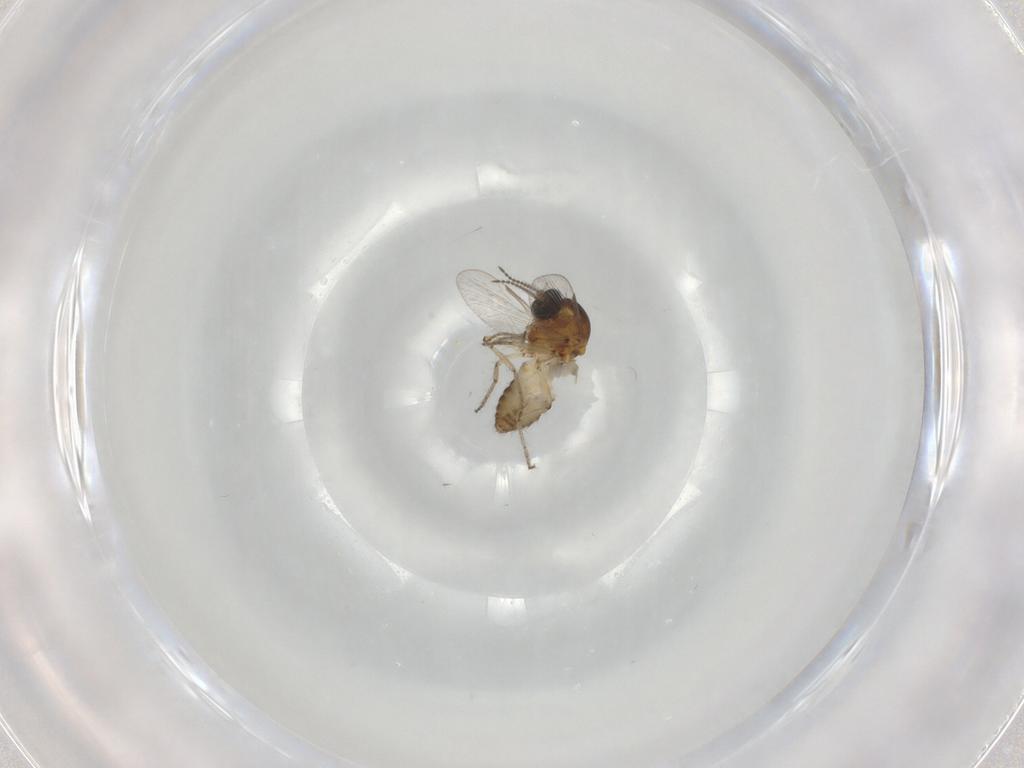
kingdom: Animalia
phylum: Arthropoda
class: Insecta
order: Diptera
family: Ceratopogonidae
